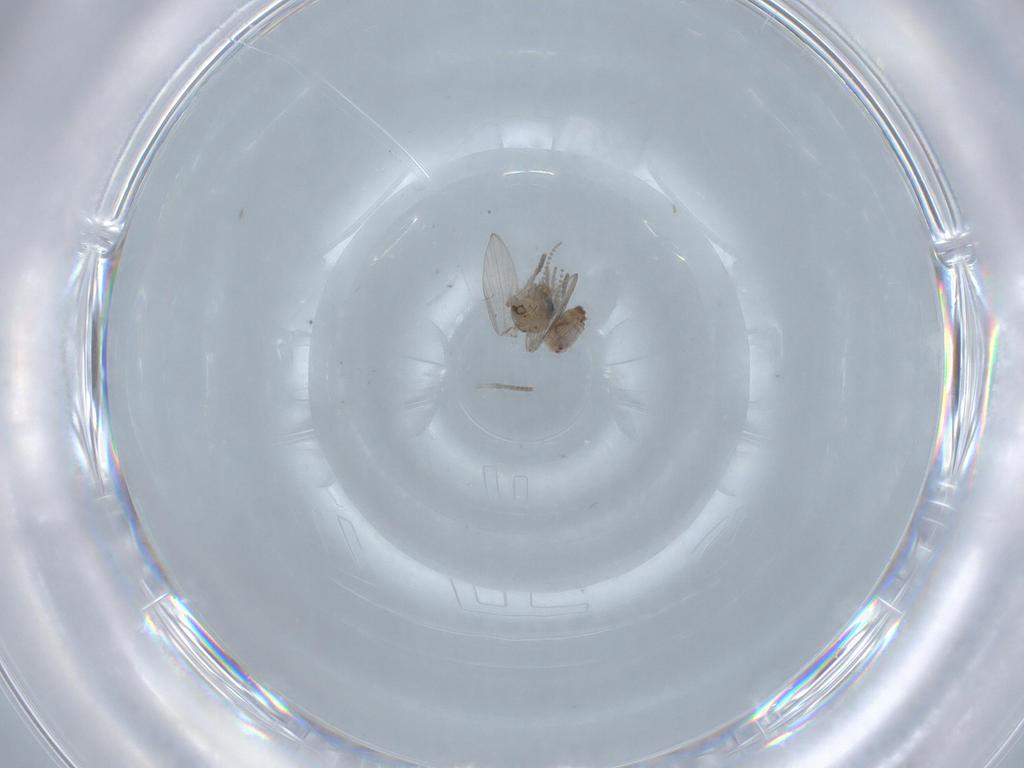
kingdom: Animalia
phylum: Arthropoda
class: Insecta
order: Diptera
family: Psychodidae
